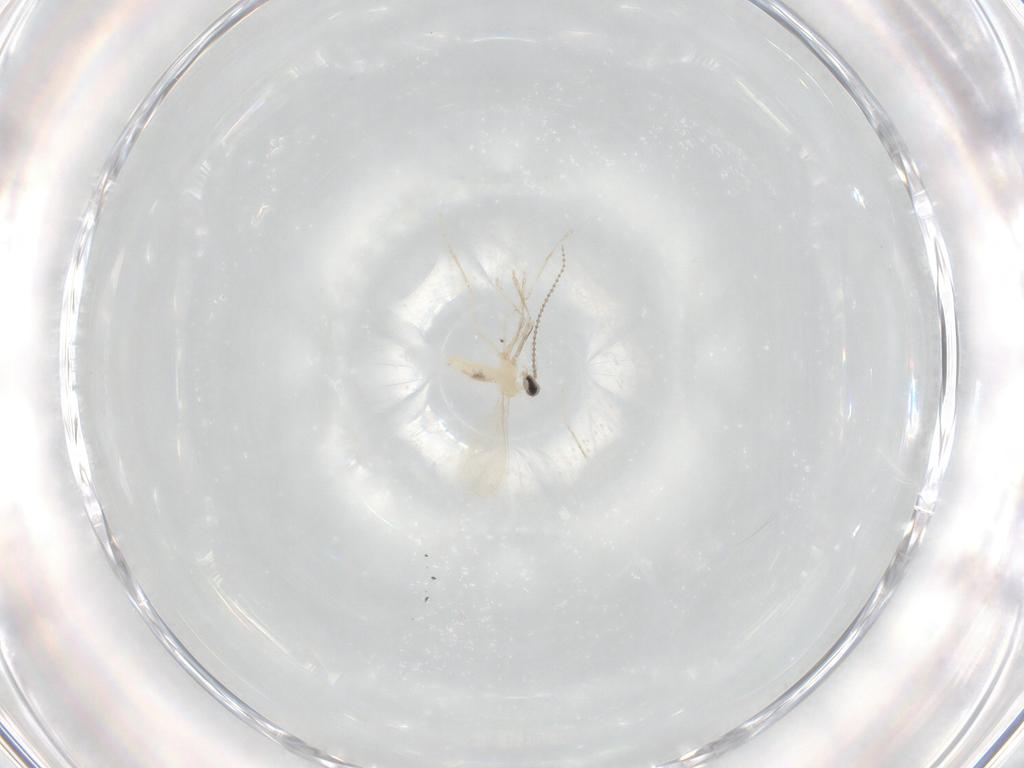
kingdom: Animalia
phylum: Arthropoda
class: Insecta
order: Diptera
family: Cecidomyiidae
